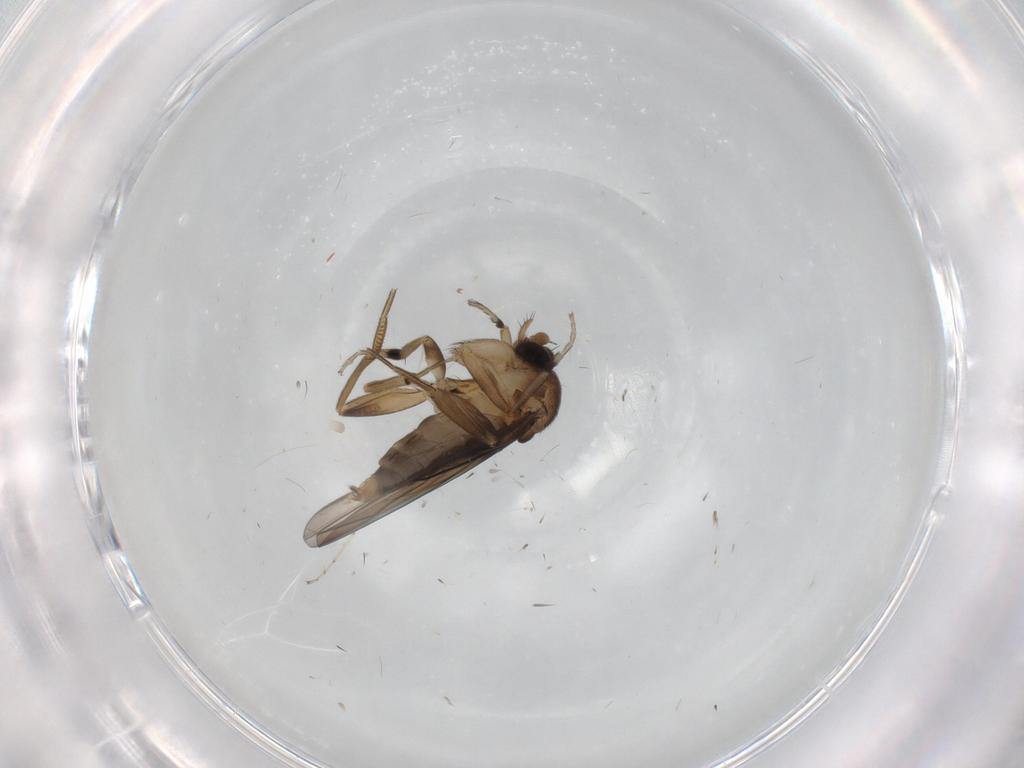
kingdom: Animalia
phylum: Arthropoda
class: Insecta
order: Diptera
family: Cecidomyiidae
